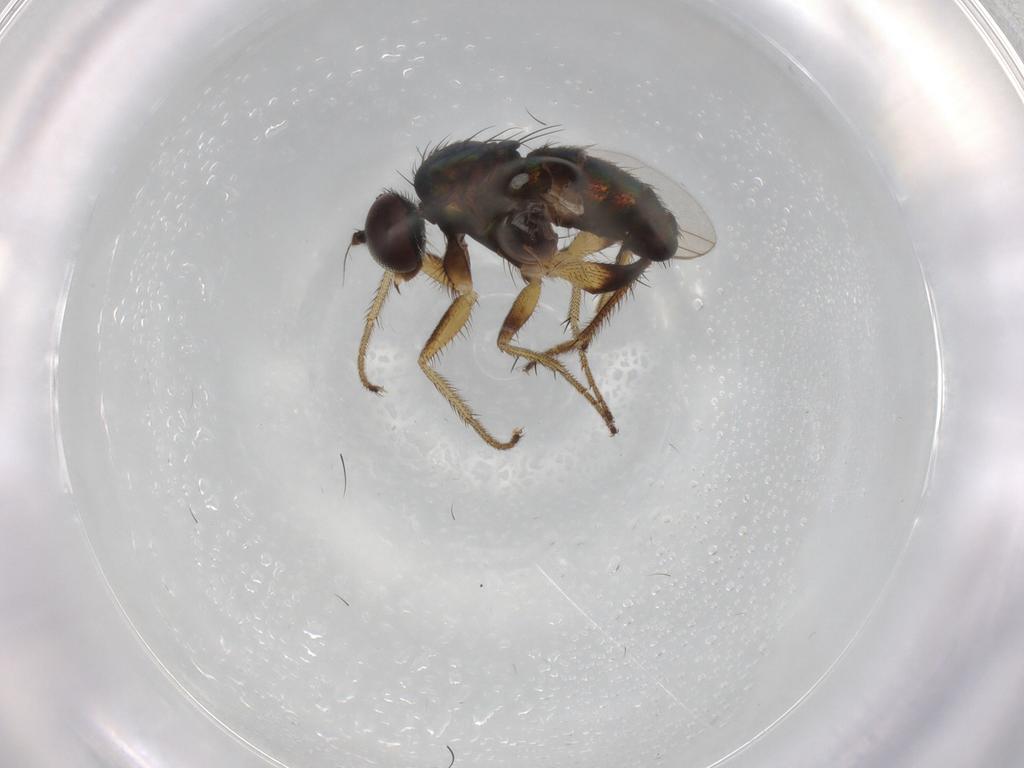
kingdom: Animalia
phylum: Arthropoda
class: Insecta
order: Diptera
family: Dolichopodidae
